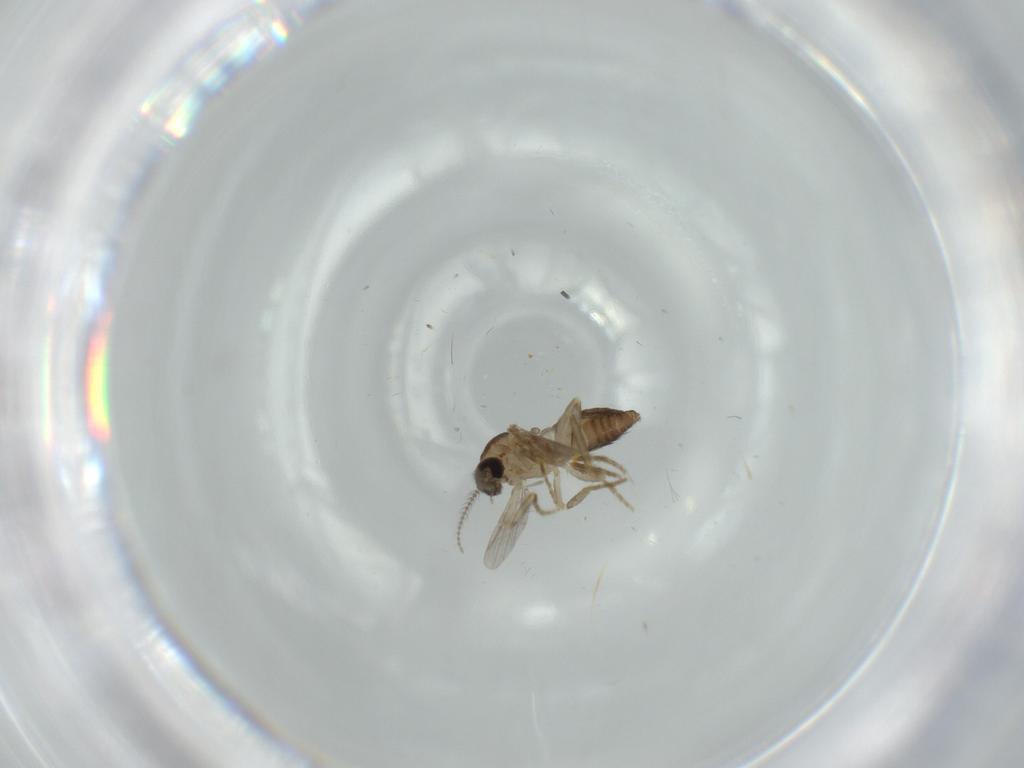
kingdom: Animalia
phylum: Arthropoda
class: Insecta
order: Diptera
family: Ceratopogonidae
